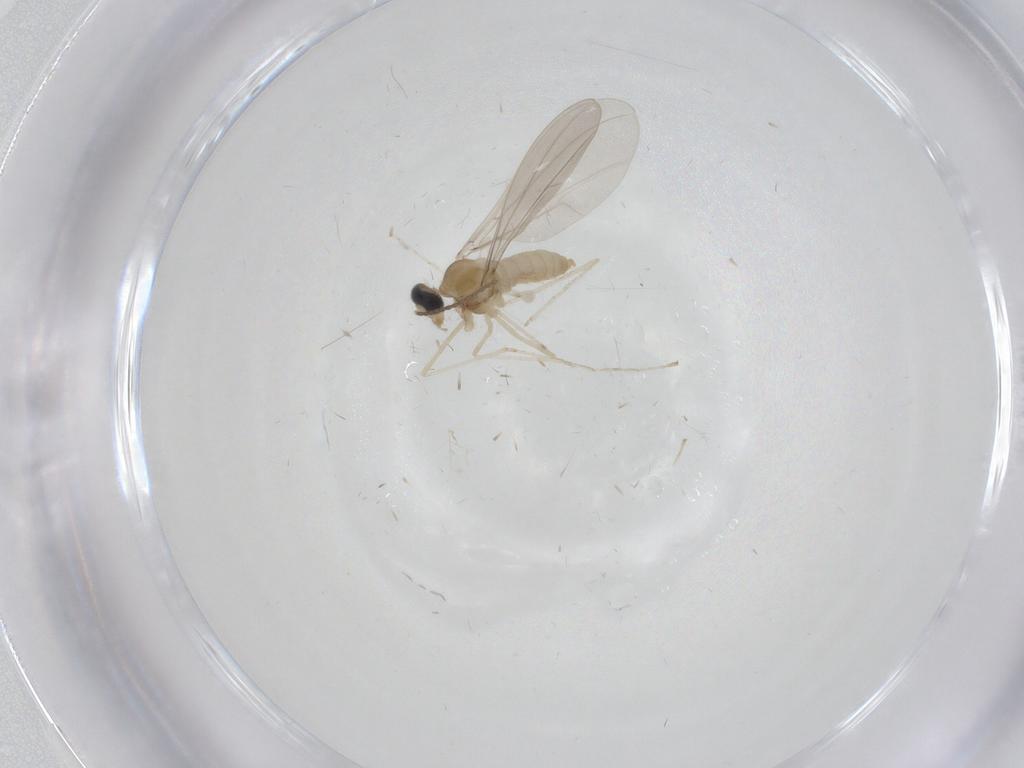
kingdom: Animalia
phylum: Arthropoda
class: Insecta
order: Diptera
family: Cecidomyiidae
